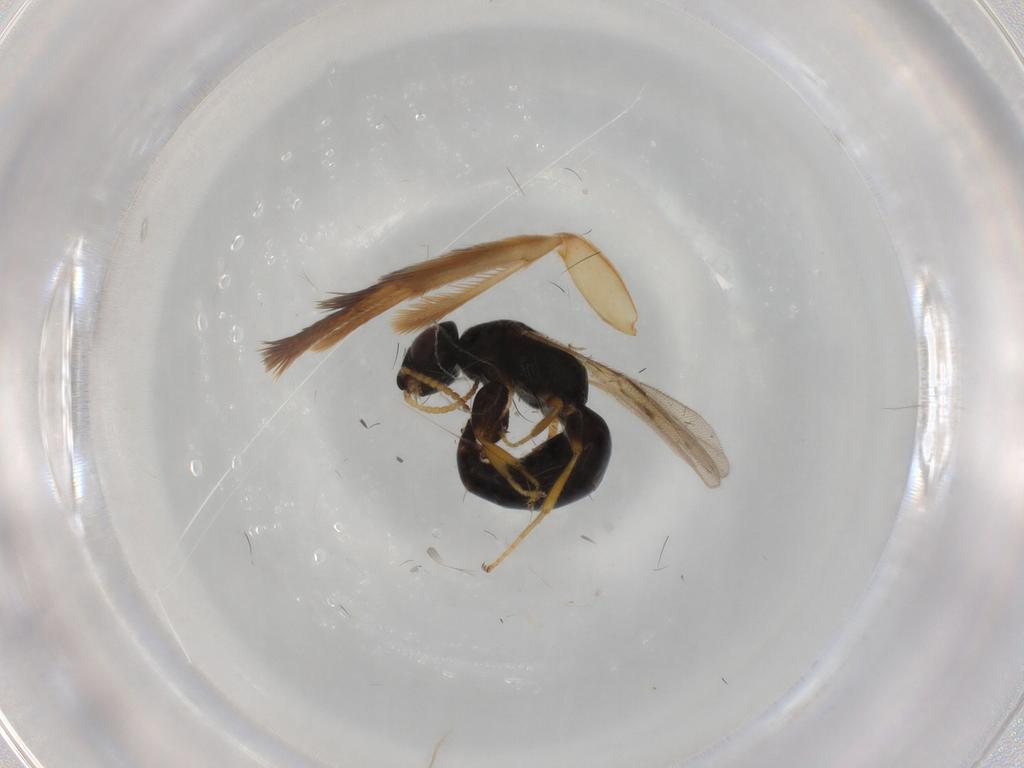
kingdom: Animalia
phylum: Arthropoda
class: Insecta
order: Hymenoptera
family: Bethylidae
